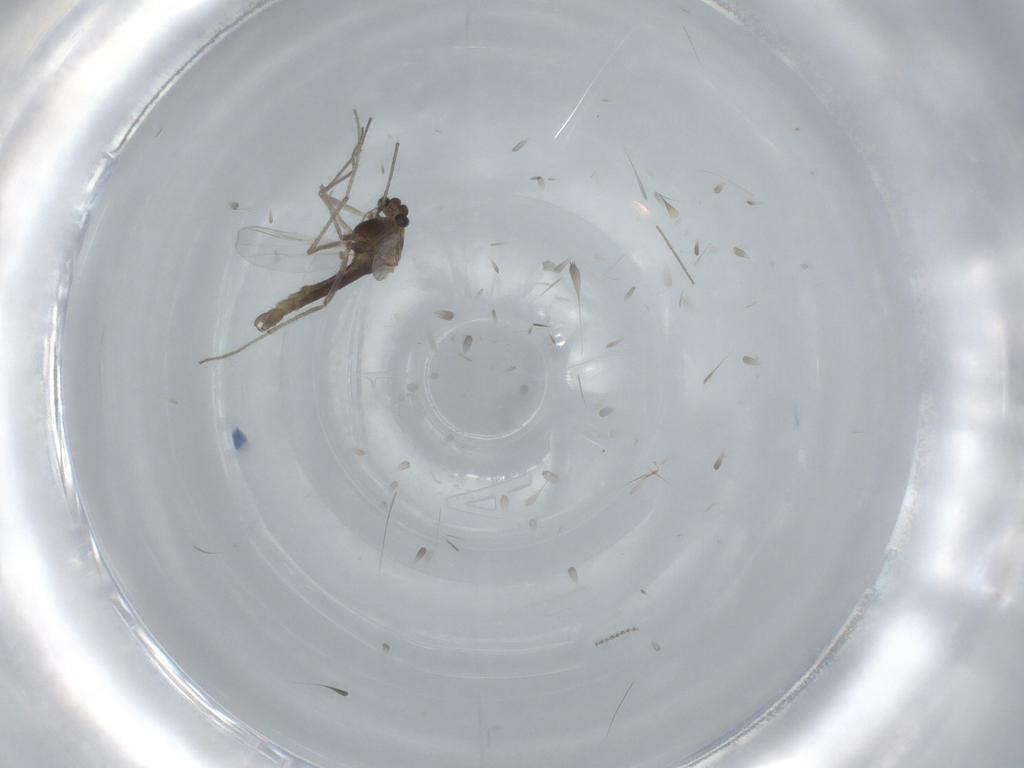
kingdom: Animalia
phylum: Arthropoda
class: Insecta
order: Diptera
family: Chironomidae
